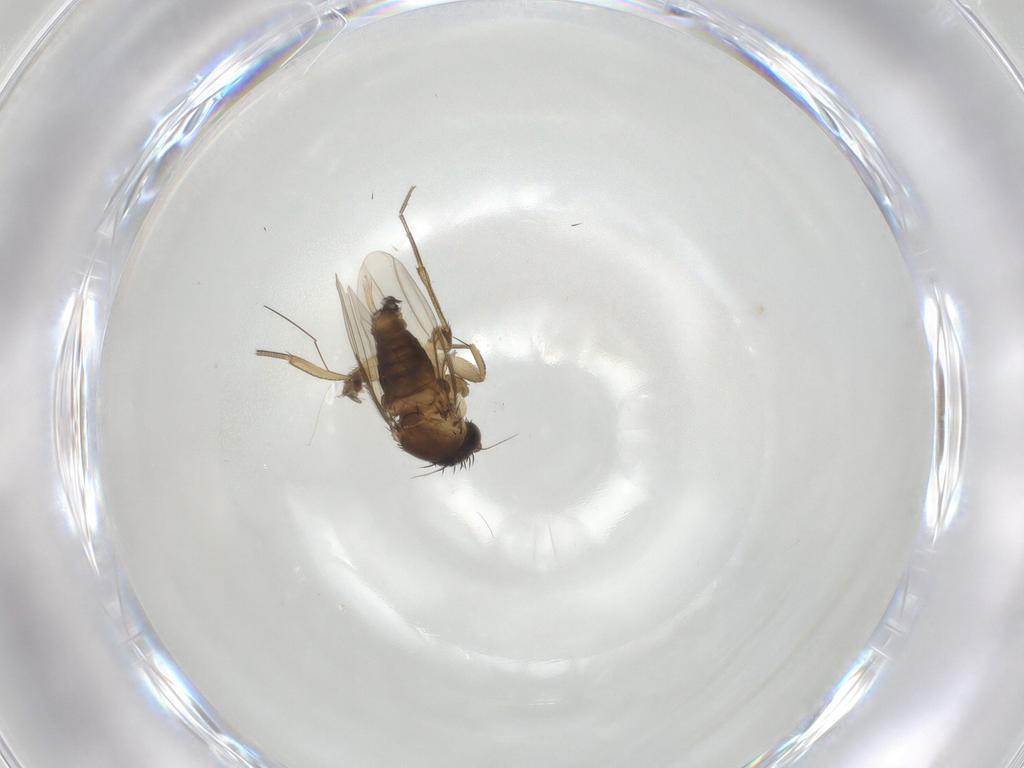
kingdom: Animalia
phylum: Arthropoda
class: Insecta
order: Diptera
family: Phoridae
